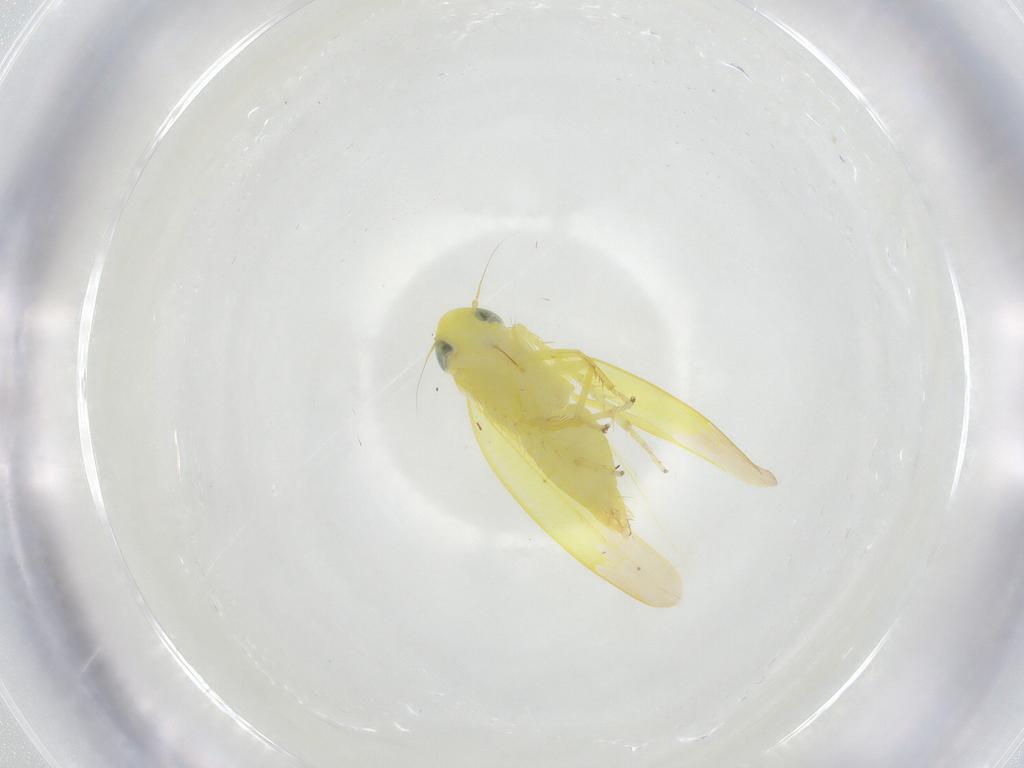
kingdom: Animalia
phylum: Arthropoda
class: Insecta
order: Hemiptera
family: Cicadellidae
